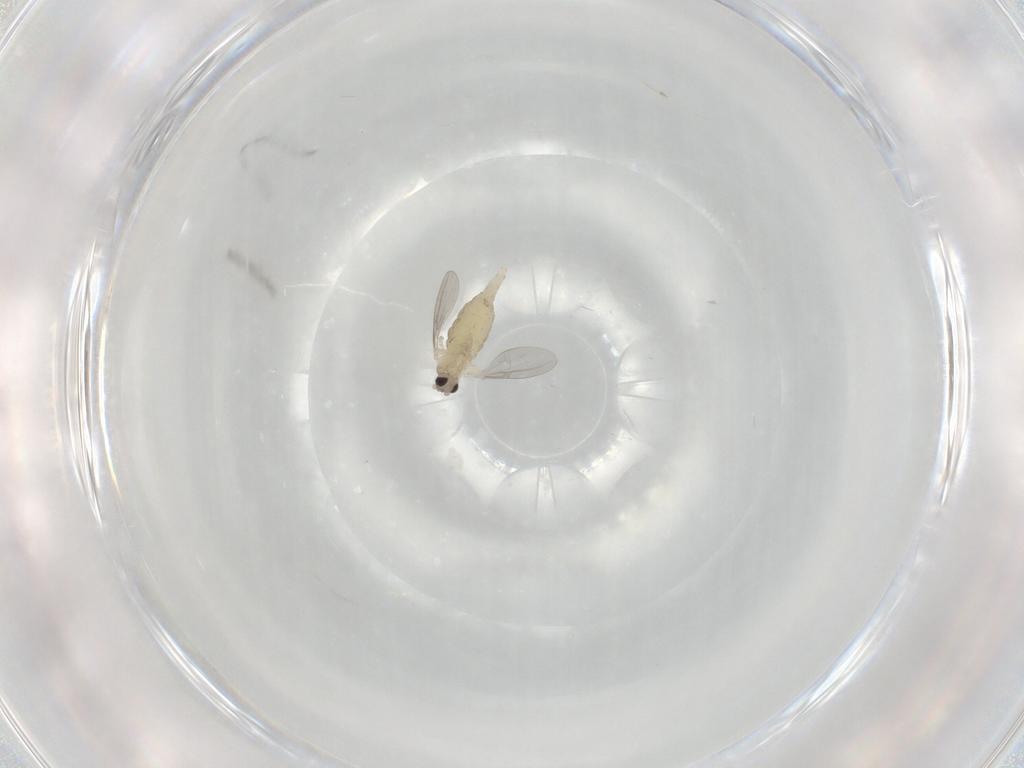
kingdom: Animalia
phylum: Arthropoda
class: Insecta
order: Diptera
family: Cecidomyiidae
